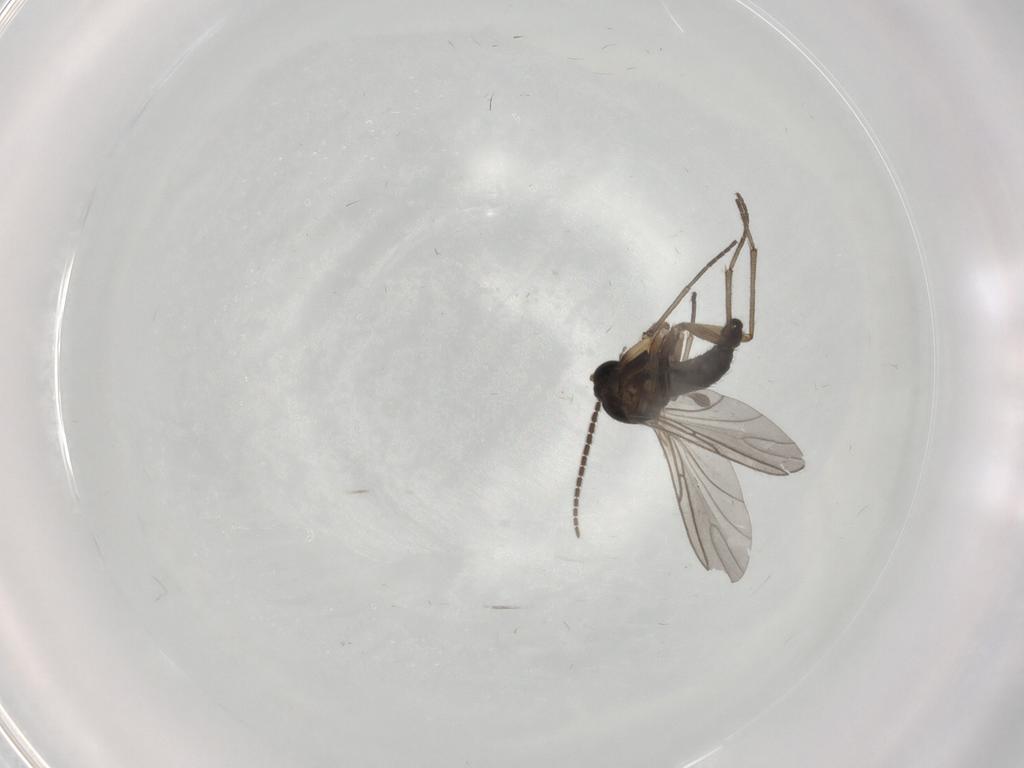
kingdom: Animalia
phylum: Arthropoda
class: Insecta
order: Diptera
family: Sciaridae
